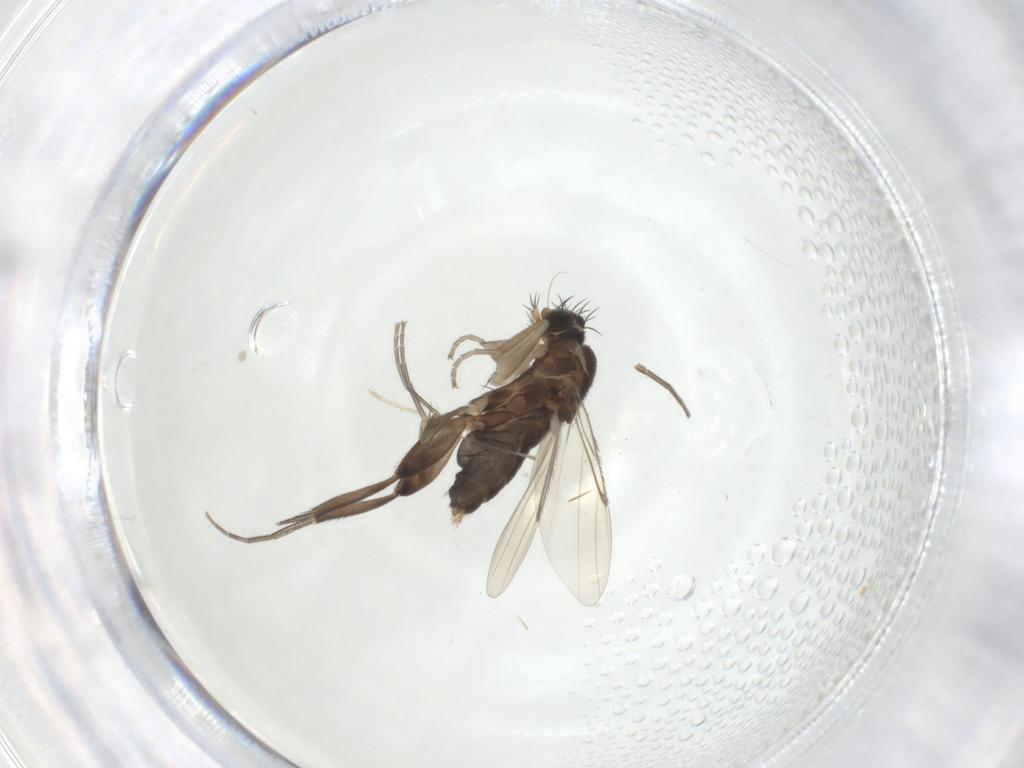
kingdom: Animalia
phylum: Arthropoda
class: Insecta
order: Diptera
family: Phoridae
